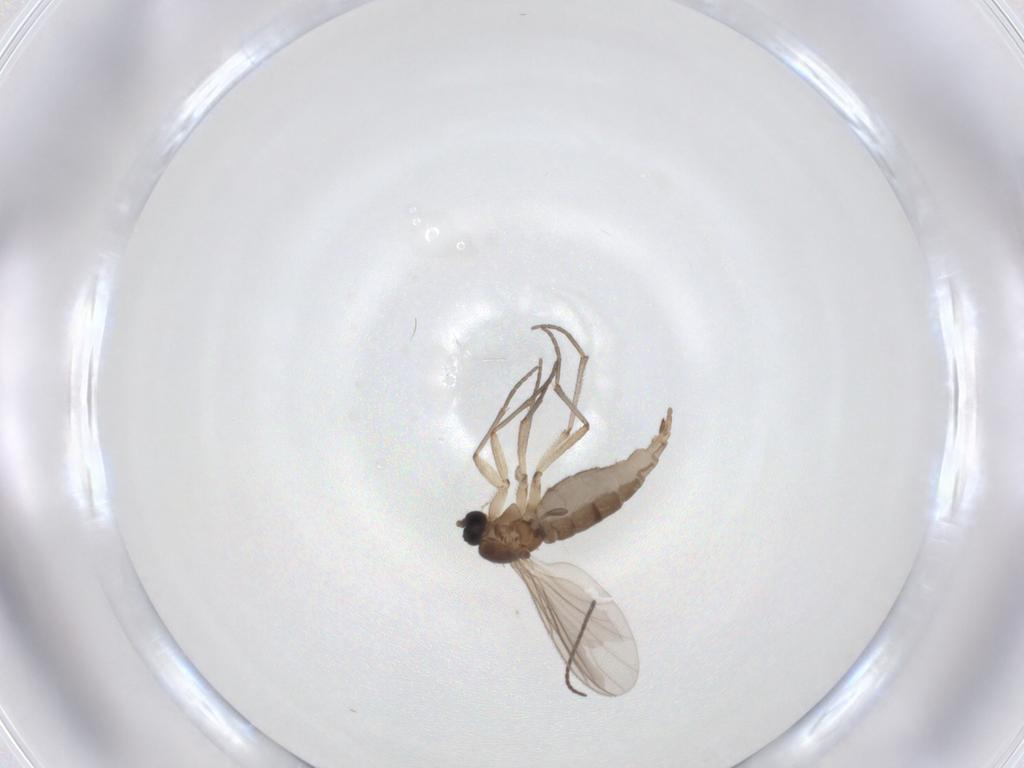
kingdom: Animalia
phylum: Arthropoda
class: Insecta
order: Diptera
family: Sciaridae
